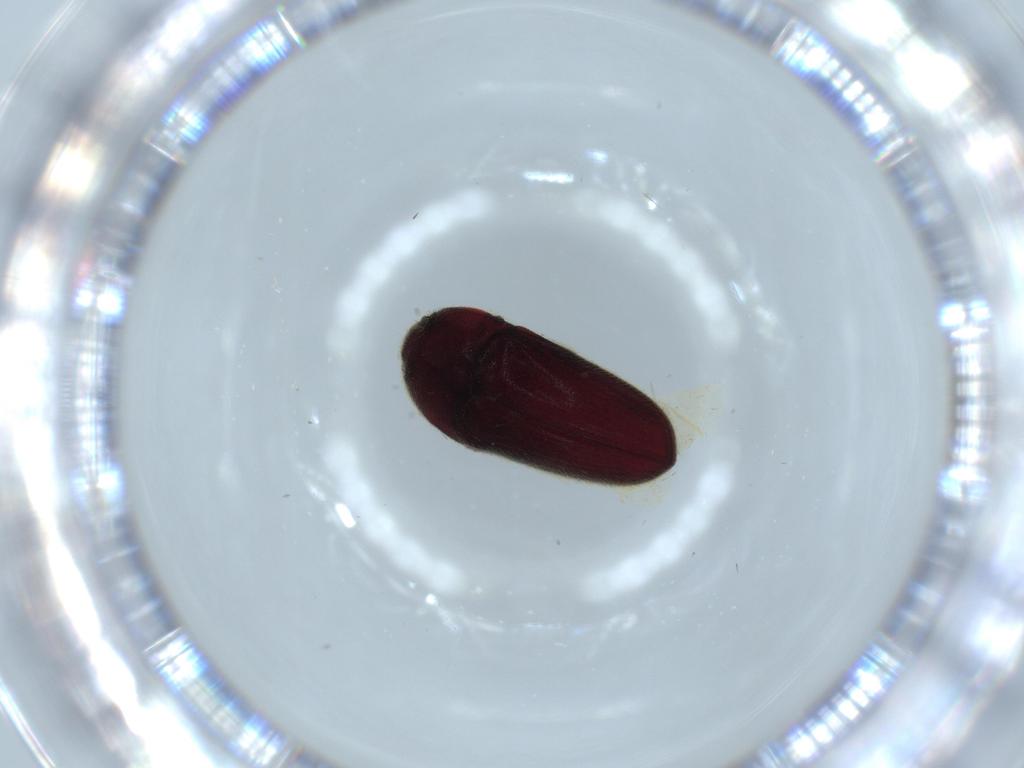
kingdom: Animalia
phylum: Arthropoda
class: Insecta
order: Coleoptera
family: Throscidae
